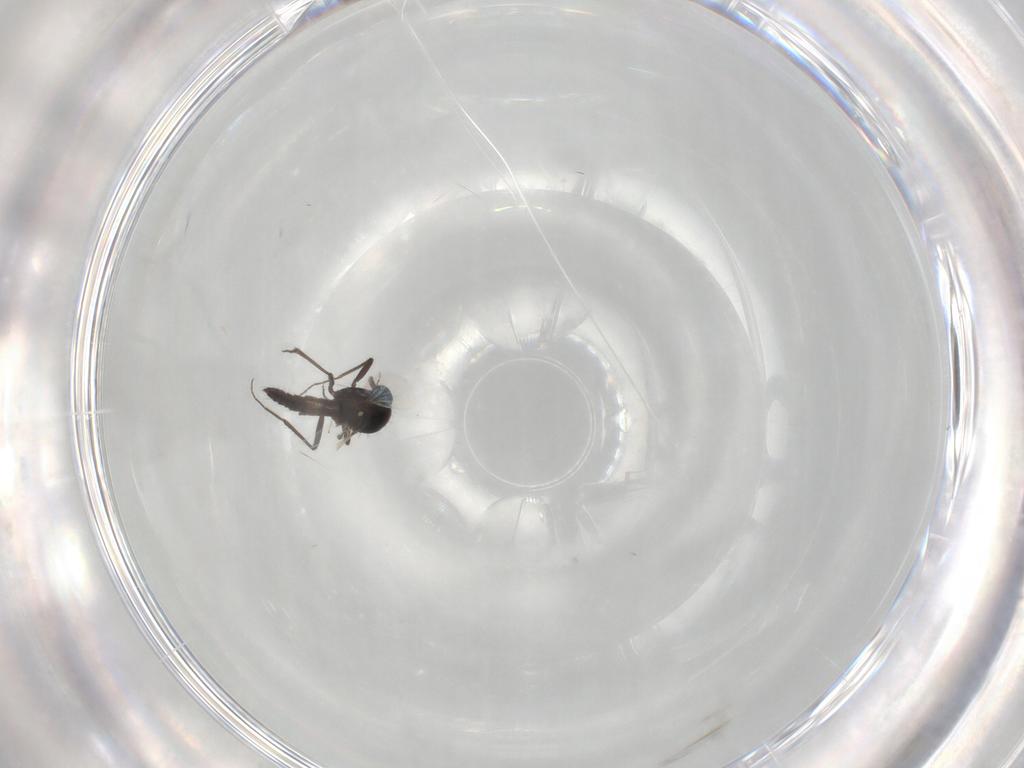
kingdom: Animalia
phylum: Arthropoda
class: Insecta
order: Diptera
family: Ceratopogonidae
